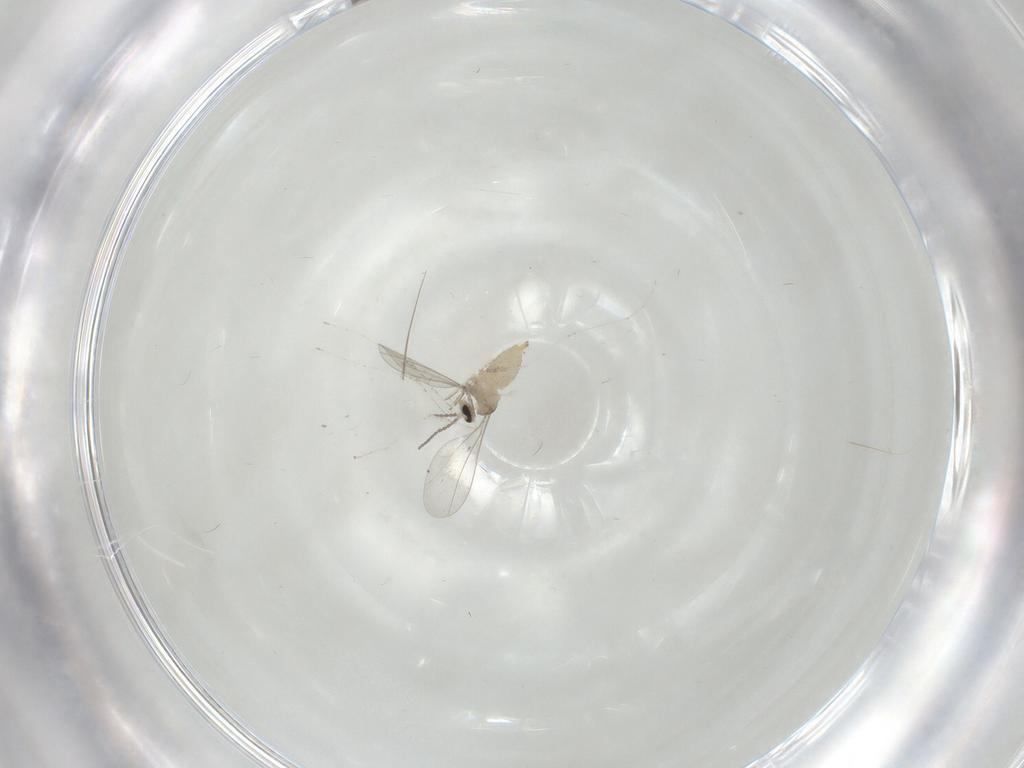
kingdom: Animalia
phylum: Arthropoda
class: Insecta
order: Diptera
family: Cecidomyiidae
